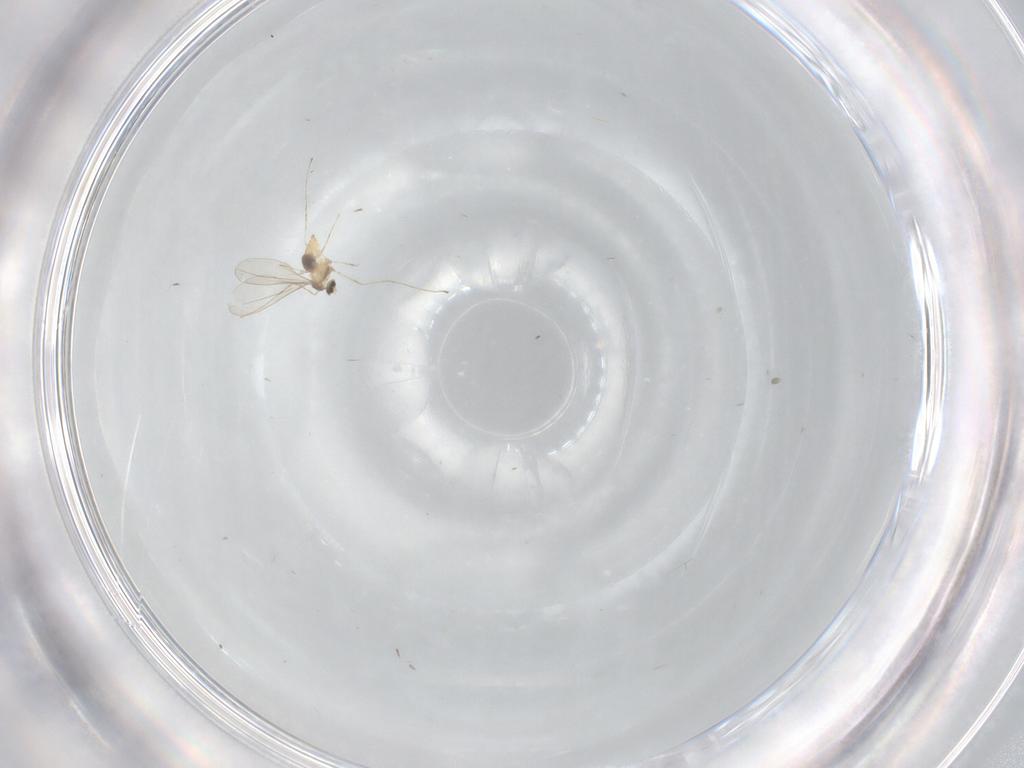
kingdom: Animalia
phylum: Arthropoda
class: Insecta
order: Diptera
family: Cecidomyiidae
